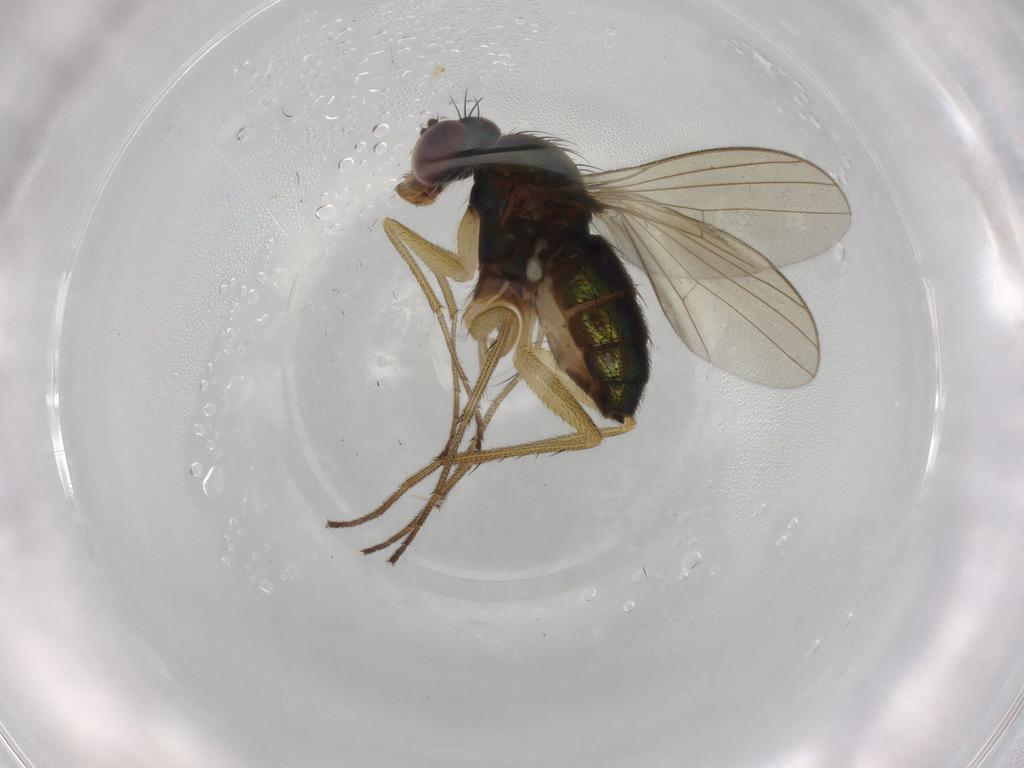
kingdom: Animalia
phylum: Arthropoda
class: Insecta
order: Diptera
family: Dolichopodidae
